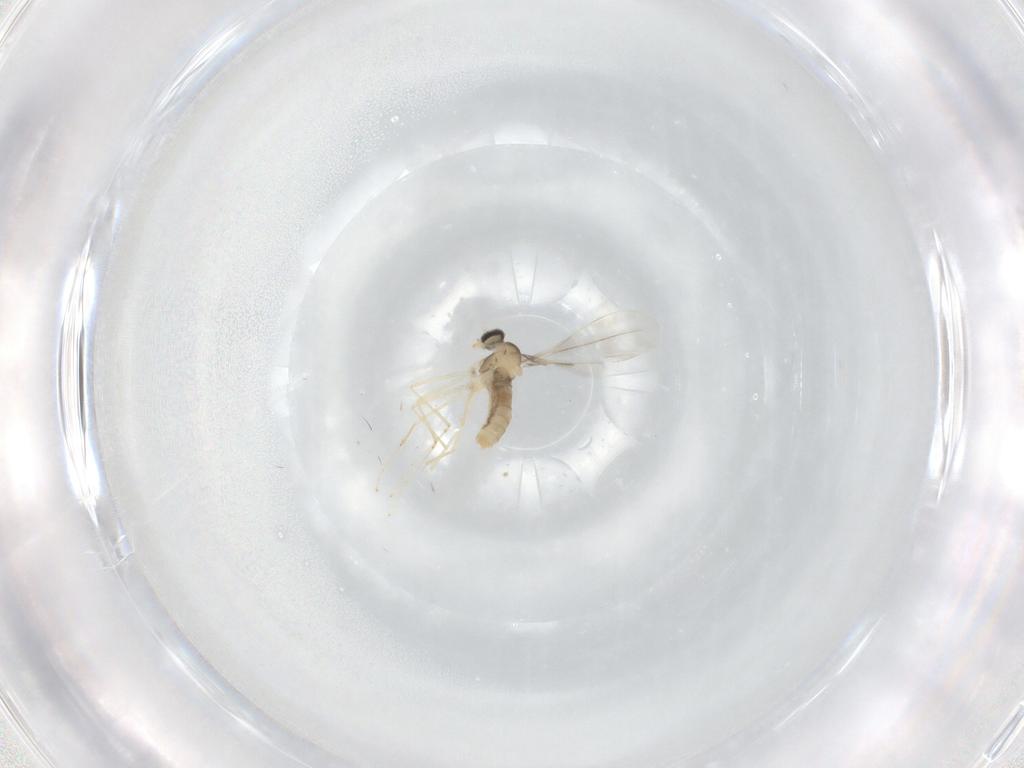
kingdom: Animalia
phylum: Arthropoda
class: Insecta
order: Diptera
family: Cecidomyiidae
